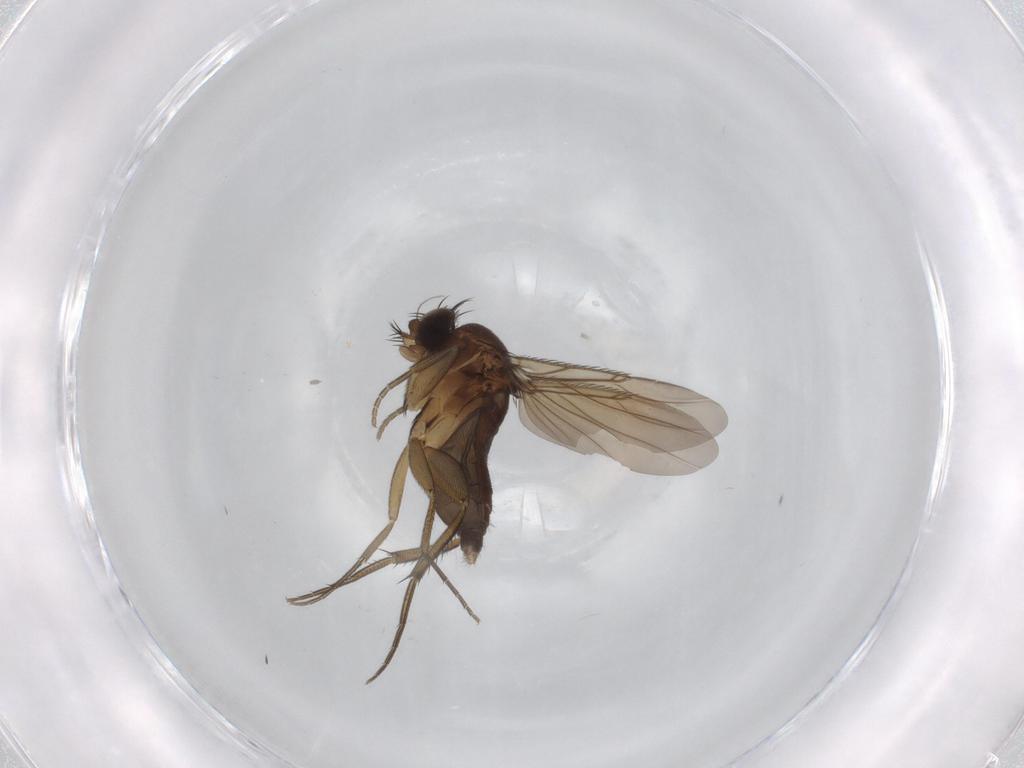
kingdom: Animalia
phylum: Arthropoda
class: Insecta
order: Diptera
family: Phoridae
